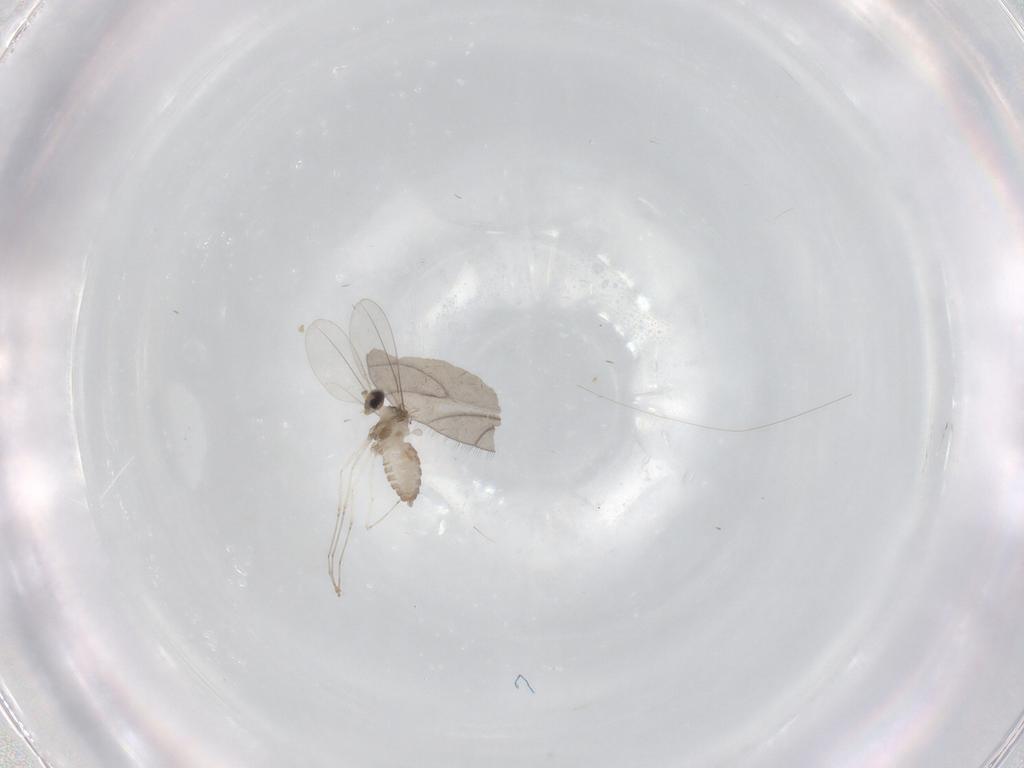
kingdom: Animalia
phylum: Arthropoda
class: Insecta
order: Diptera
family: Cecidomyiidae
